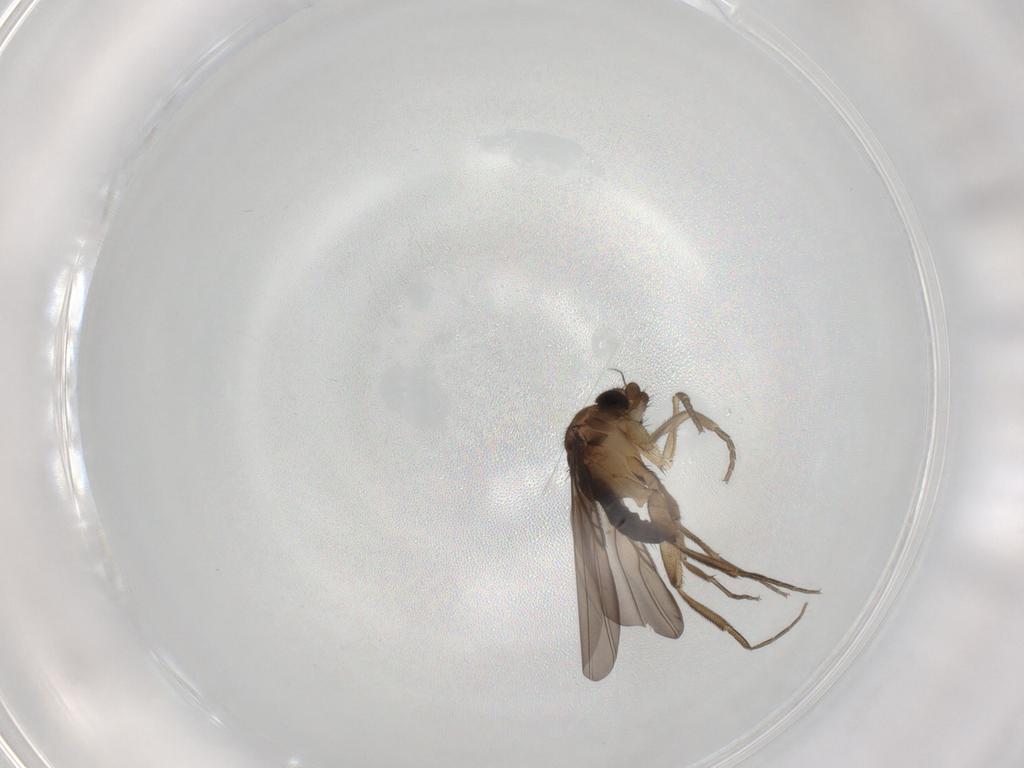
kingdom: Animalia
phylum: Arthropoda
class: Insecta
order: Diptera
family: Phoridae
